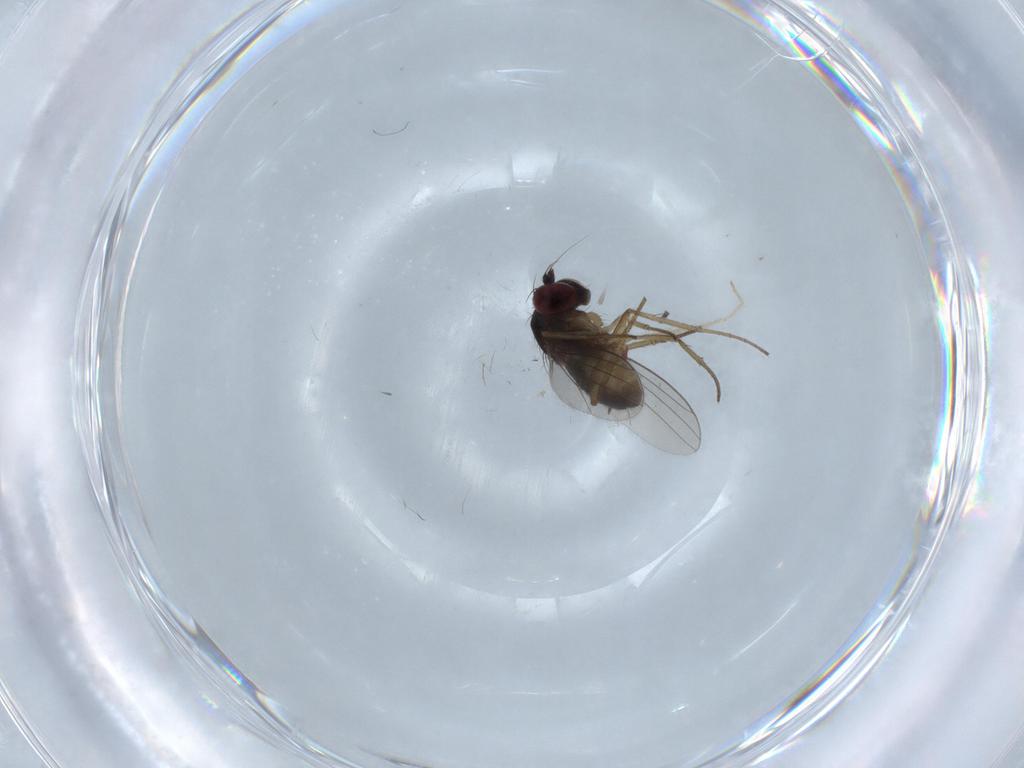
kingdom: Animalia
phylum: Arthropoda
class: Insecta
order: Diptera
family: Dolichopodidae
